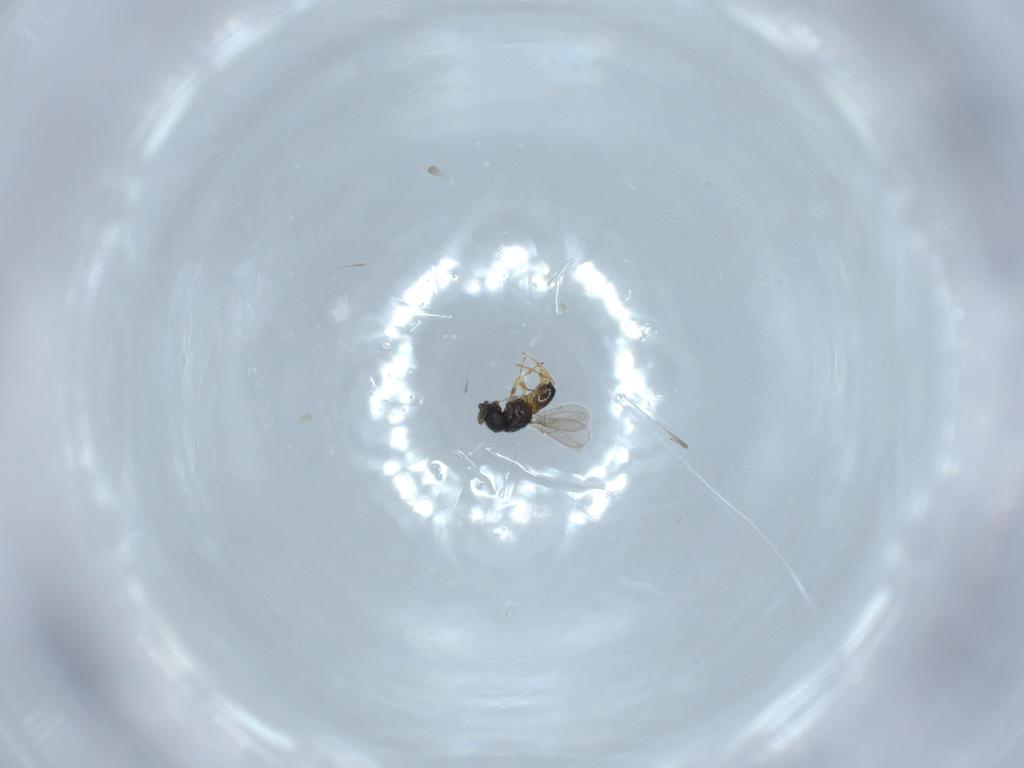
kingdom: Animalia
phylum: Arthropoda
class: Insecta
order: Hymenoptera
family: Scelionidae
